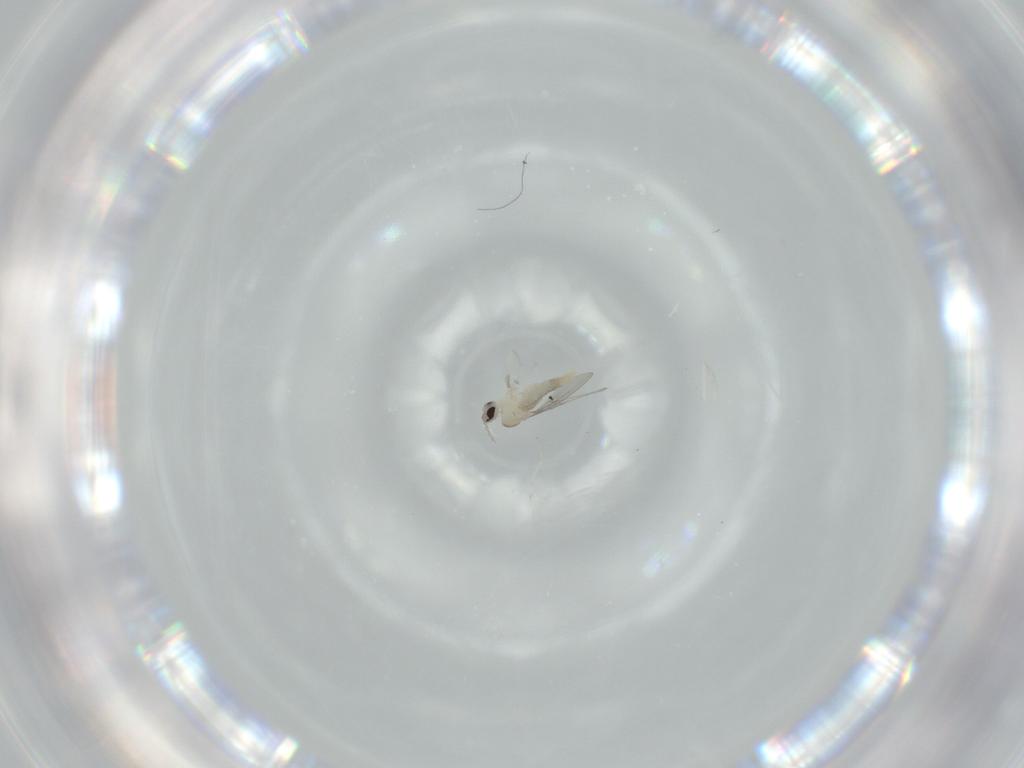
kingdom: Animalia
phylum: Arthropoda
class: Insecta
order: Diptera
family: Cecidomyiidae
